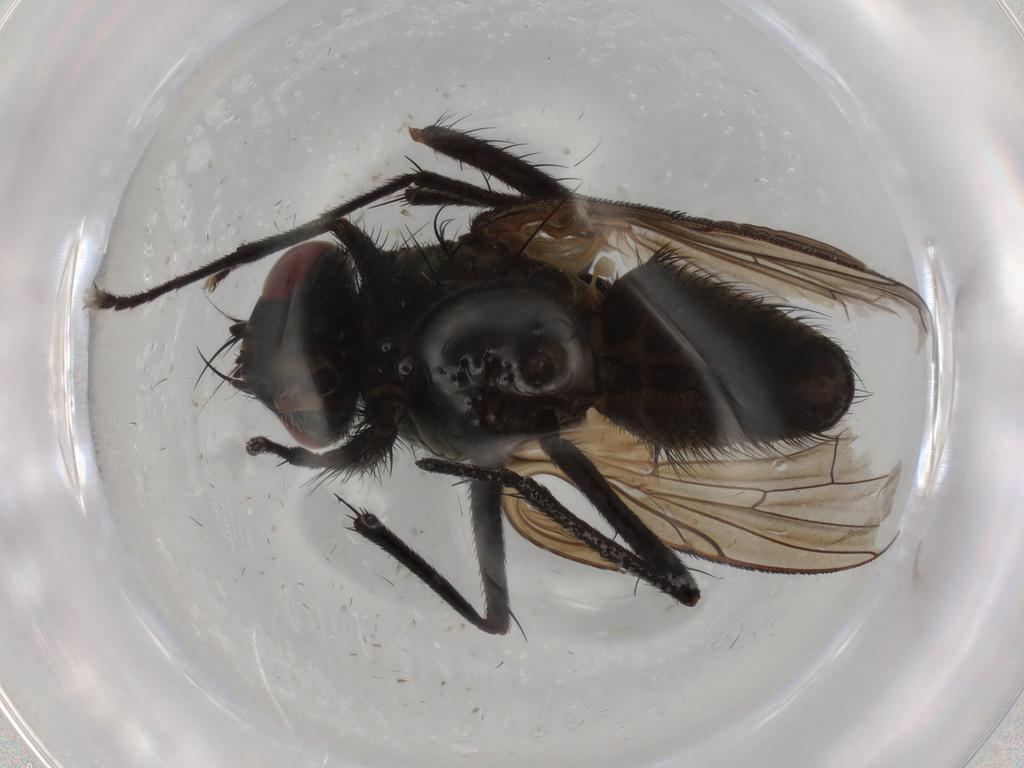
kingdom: Animalia
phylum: Arthropoda
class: Insecta
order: Diptera
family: Muscidae
